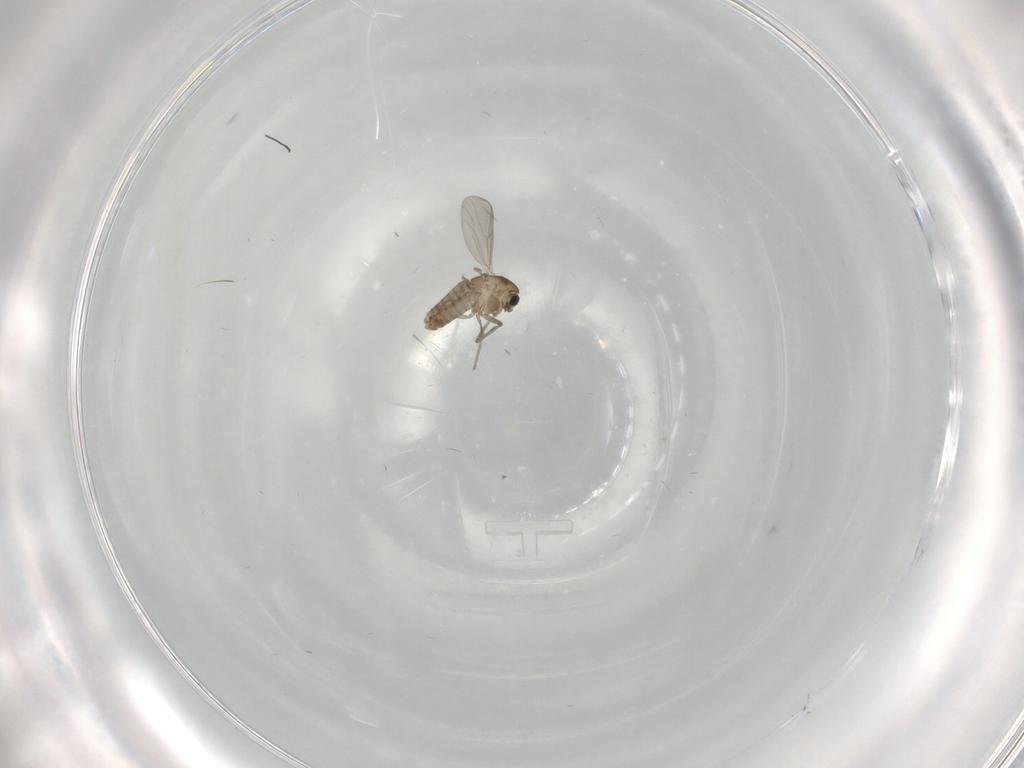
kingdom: Animalia
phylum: Arthropoda
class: Insecta
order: Diptera
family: Chironomidae
